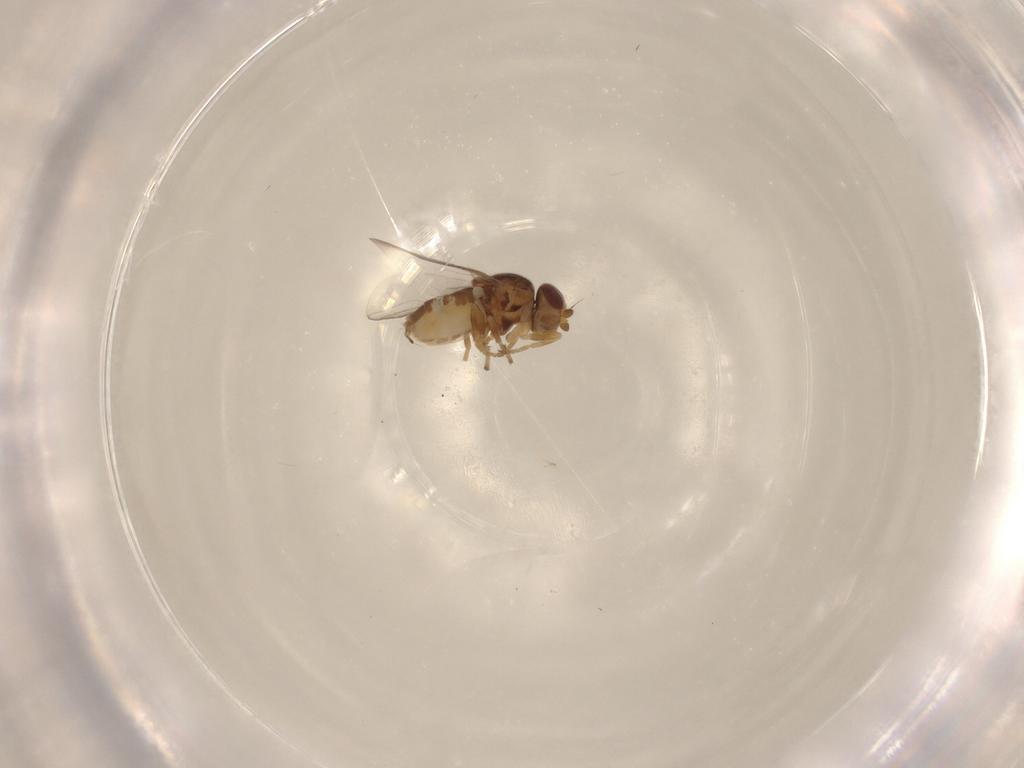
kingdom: Animalia
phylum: Arthropoda
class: Insecta
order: Diptera
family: Chloropidae
